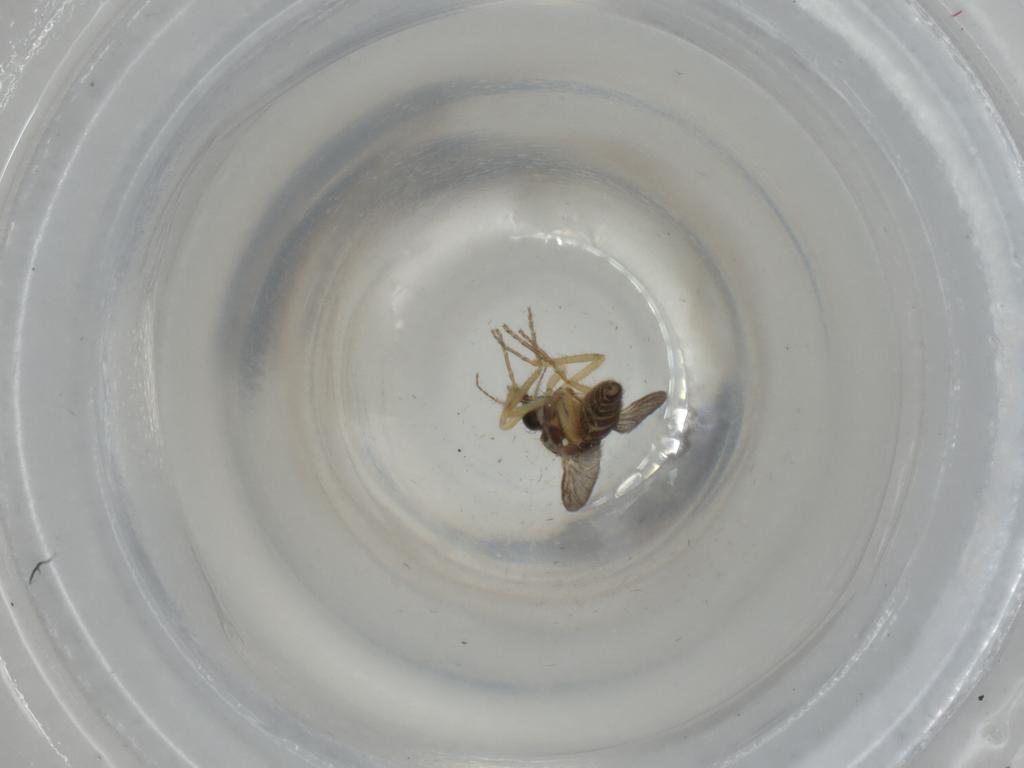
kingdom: Animalia
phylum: Arthropoda
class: Insecta
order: Diptera
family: Ceratopogonidae
